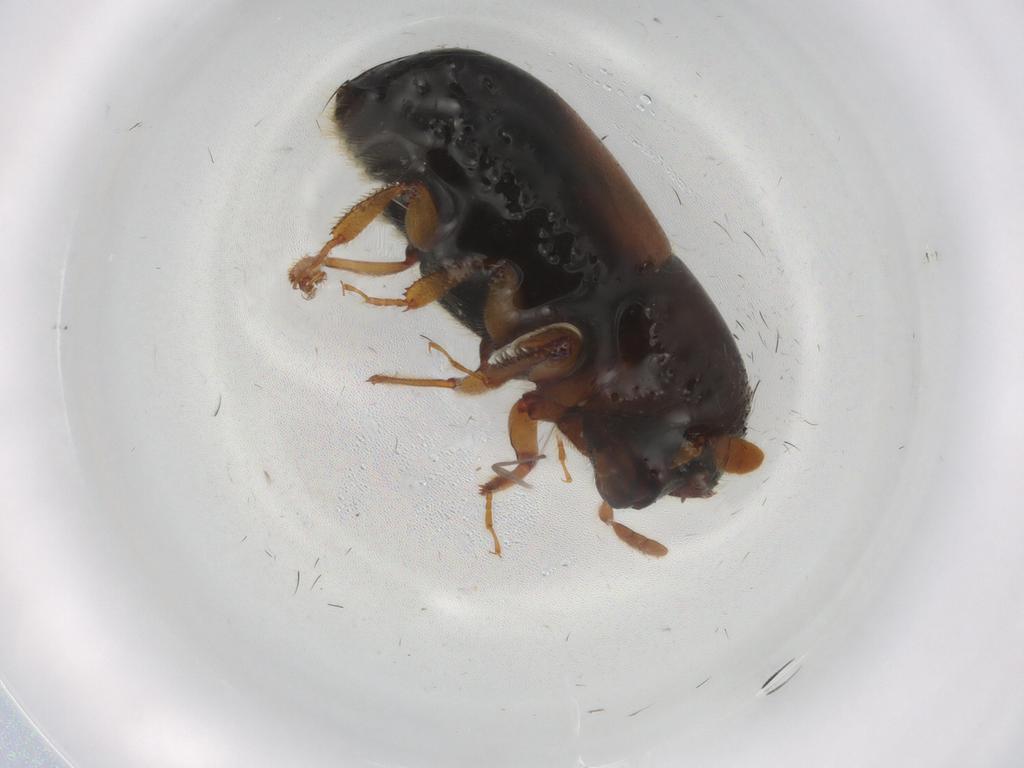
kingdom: Animalia
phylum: Arthropoda
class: Insecta
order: Coleoptera
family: Curculionidae
